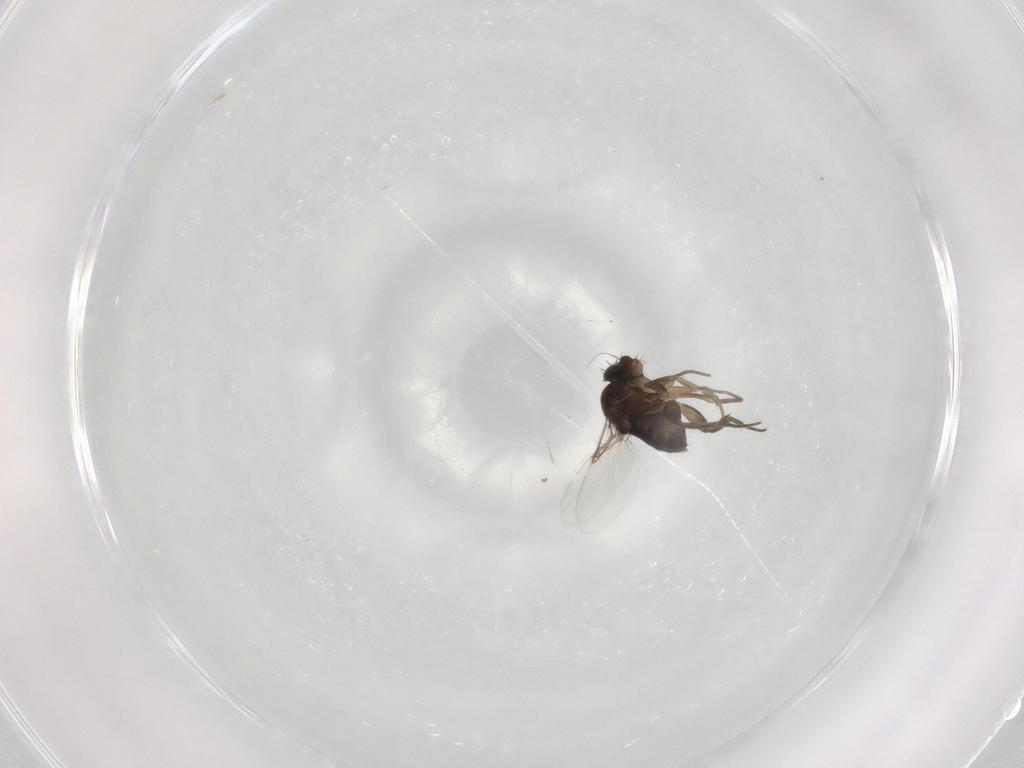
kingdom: Animalia
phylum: Arthropoda
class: Insecta
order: Diptera
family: Phoridae
